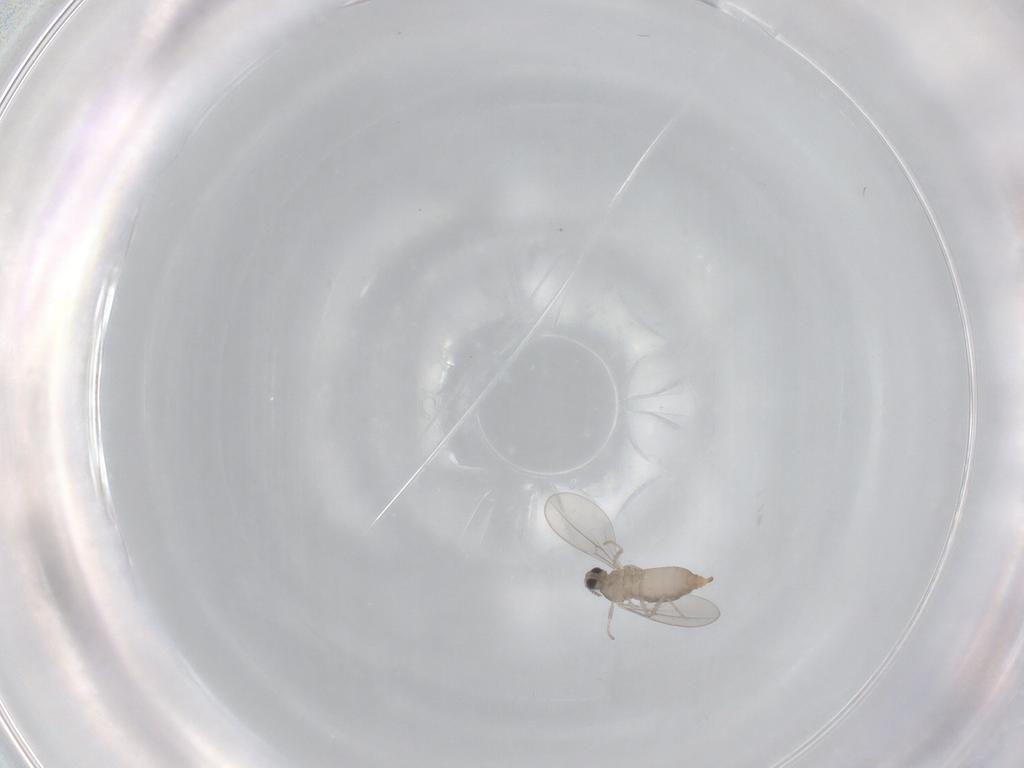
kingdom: Animalia
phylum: Arthropoda
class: Insecta
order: Diptera
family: Cecidomyiidae
